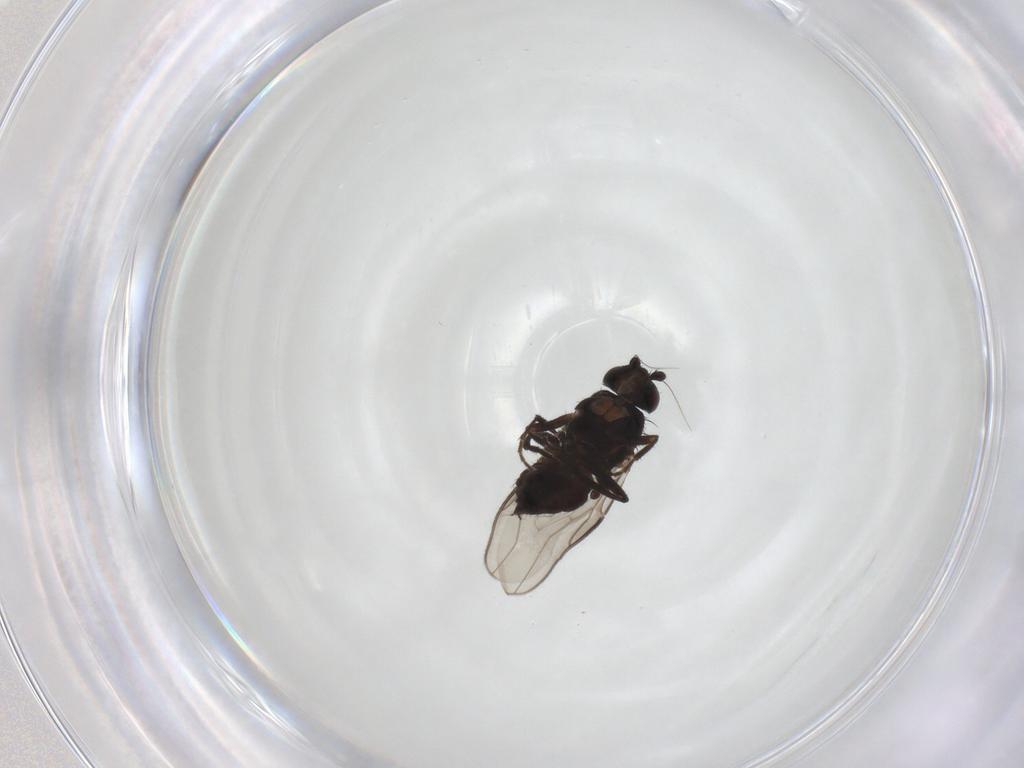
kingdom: Animalia
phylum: Arthropoda
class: Insecta
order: Diptera
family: Sphaeroceridae
